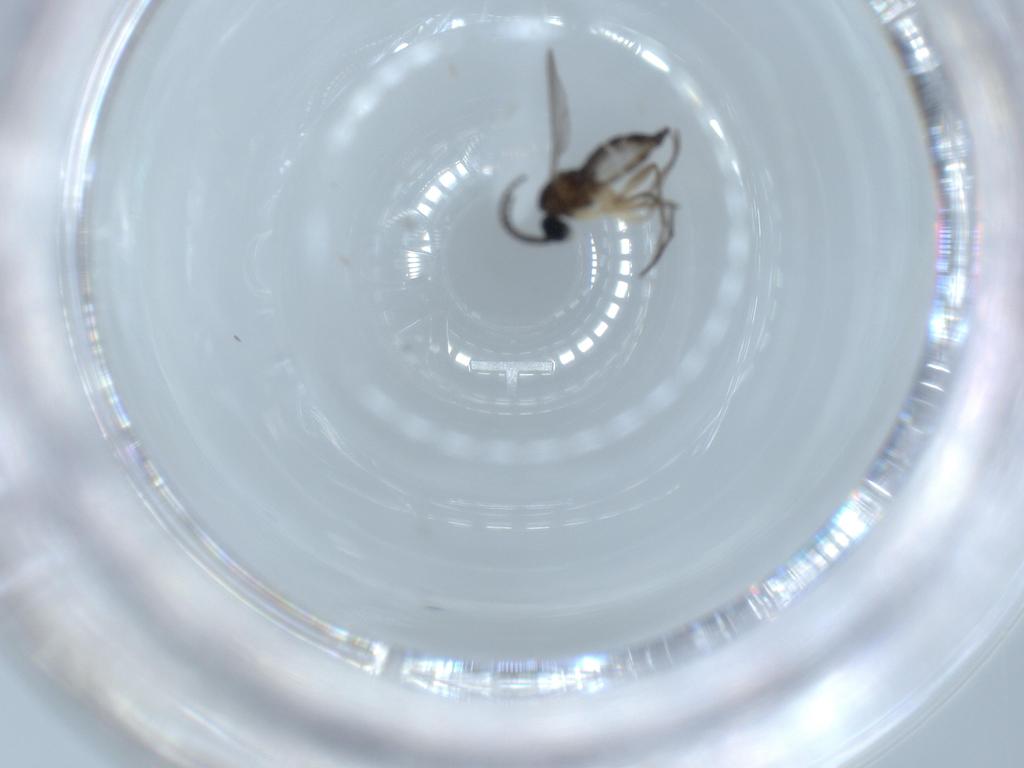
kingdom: Animalia
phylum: Arthropoda
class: Insecta
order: Diptera
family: Sciaridae
